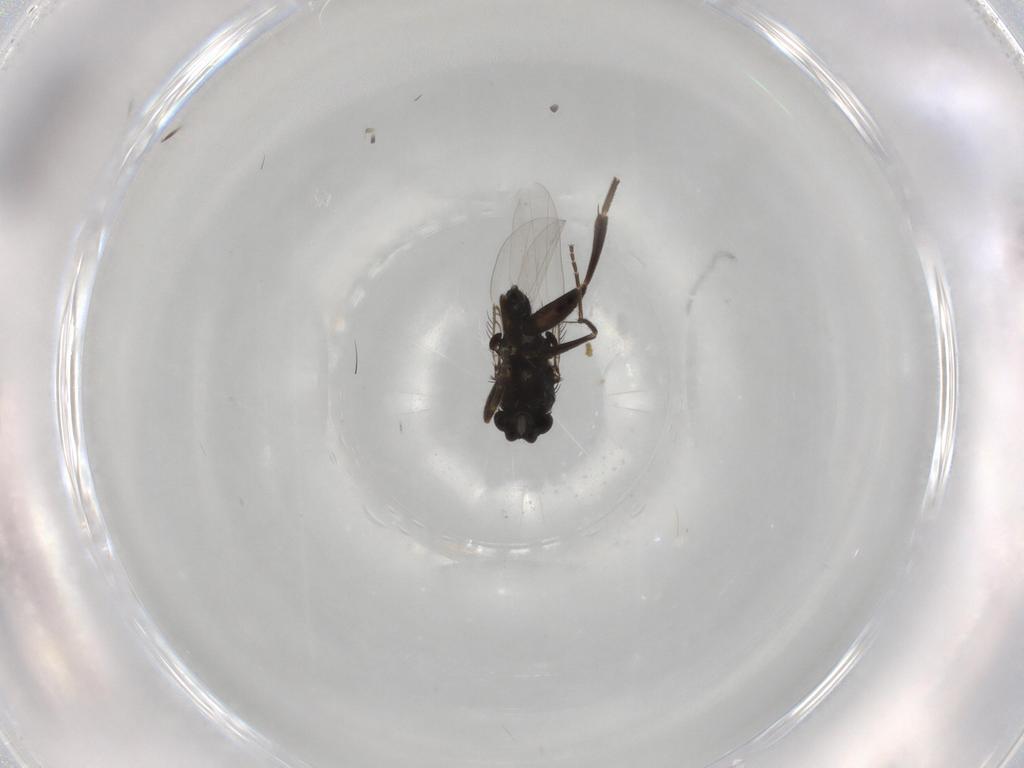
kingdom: Animalia
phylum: Arthropoda
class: Insecta
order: Diptera
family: Phoridae
